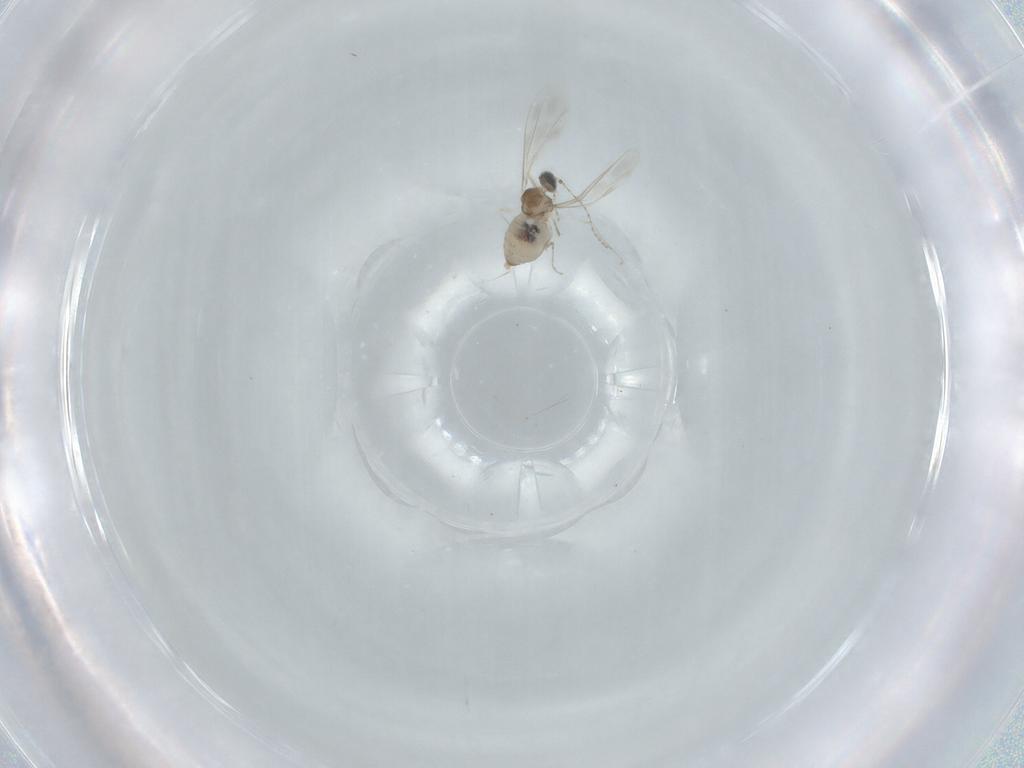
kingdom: Animalia
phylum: Arthropoda
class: Insecta
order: Diptera
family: Cecidomyiidae
